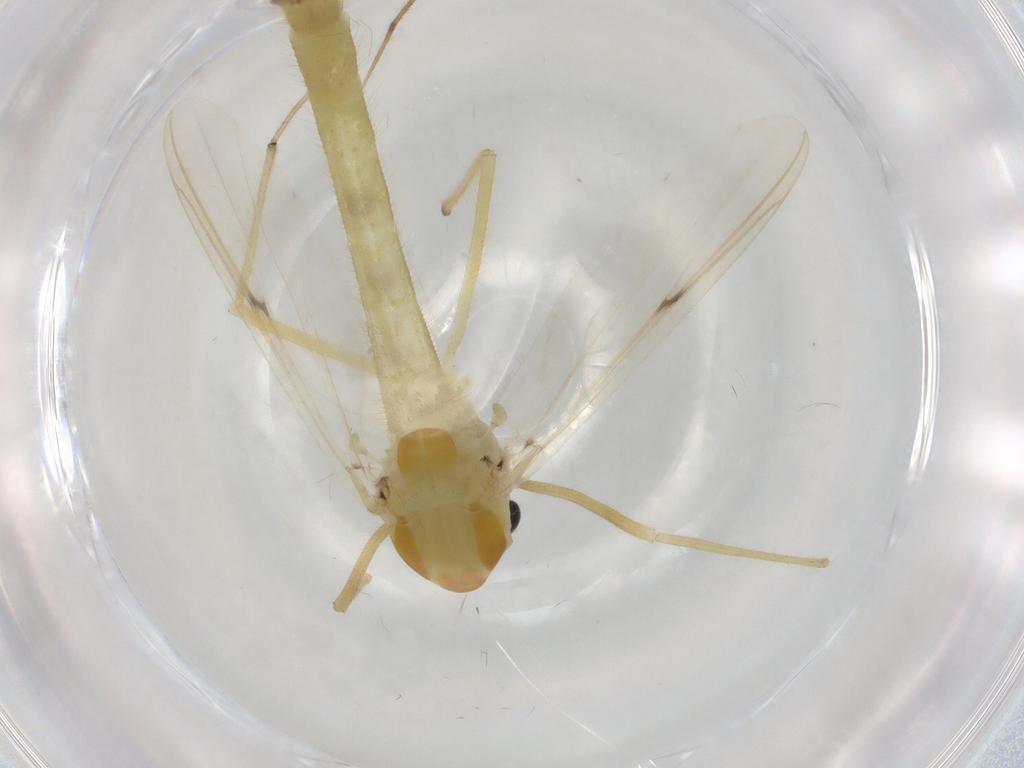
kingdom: Animalia
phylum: Arthropoda
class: Insecta
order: Diptera
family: Chironomidae
